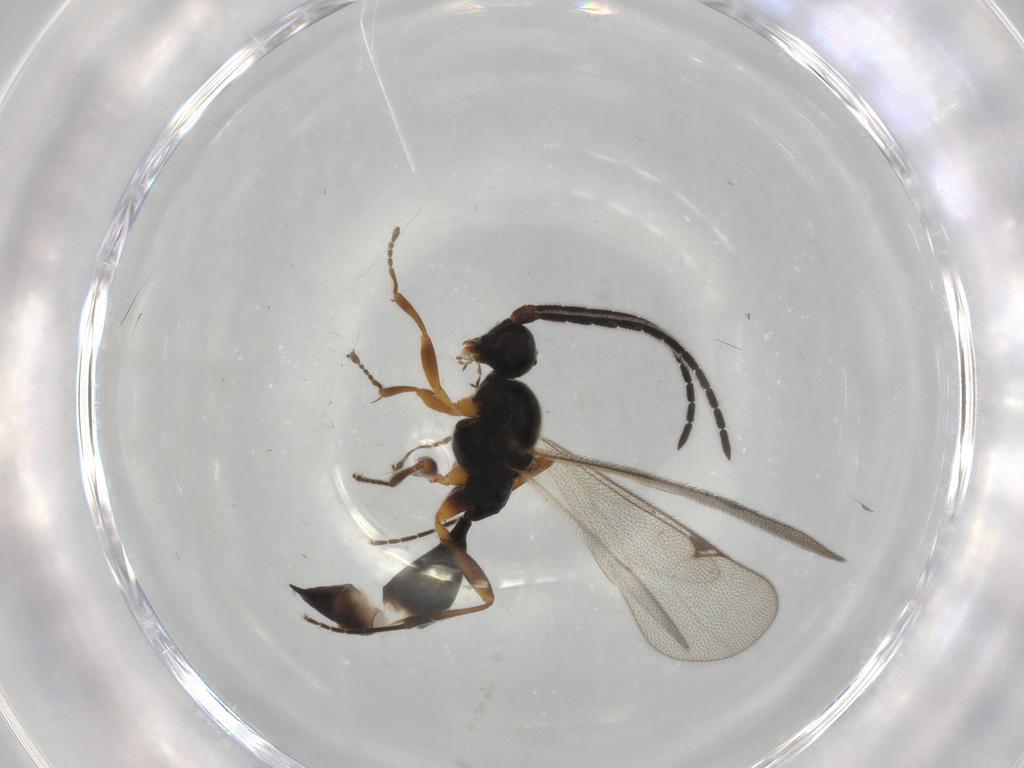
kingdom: Animalia
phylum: Arthropoda
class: Insecta
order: Hymenoptera
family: Proctotrupidae
